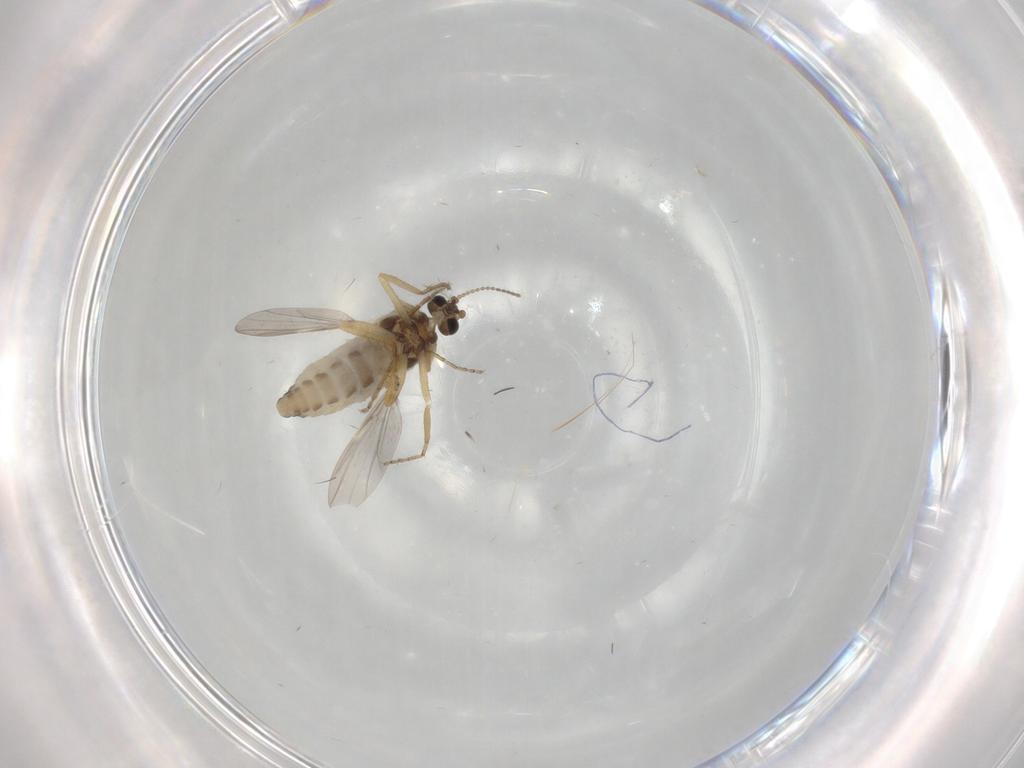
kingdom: Animalia
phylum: Arthropoda
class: Insecta
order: Diptera
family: Ceratopogonidae
